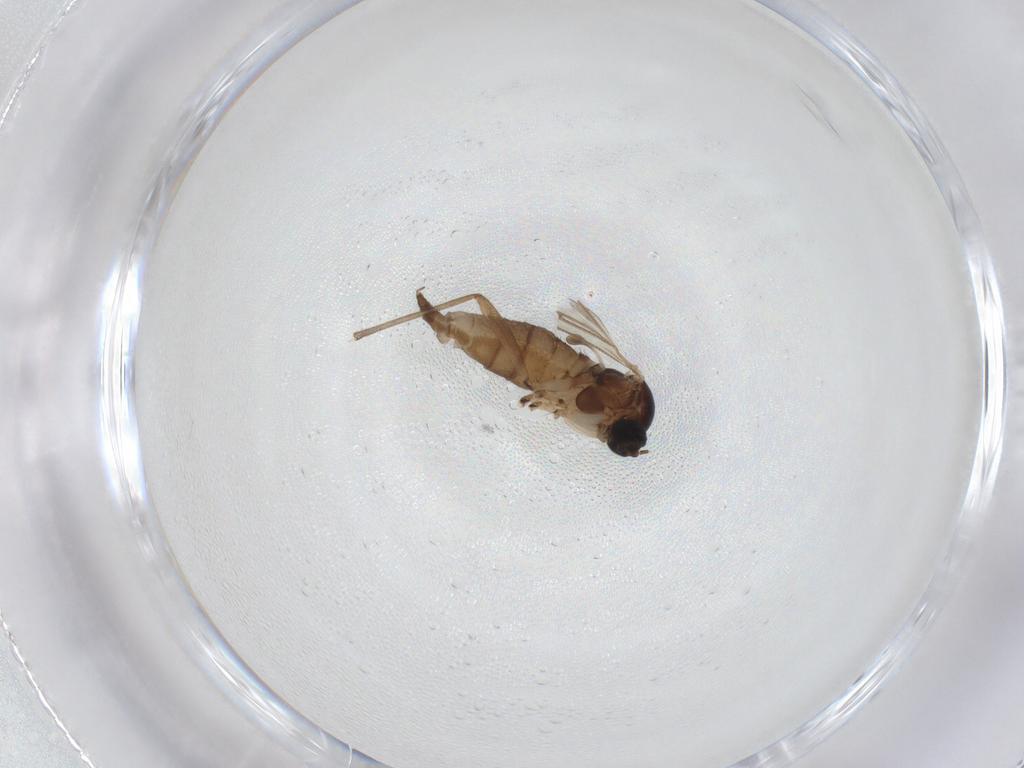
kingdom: Animalia
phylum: Arthropoda
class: Insecta
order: Diptera
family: Sciaridae
